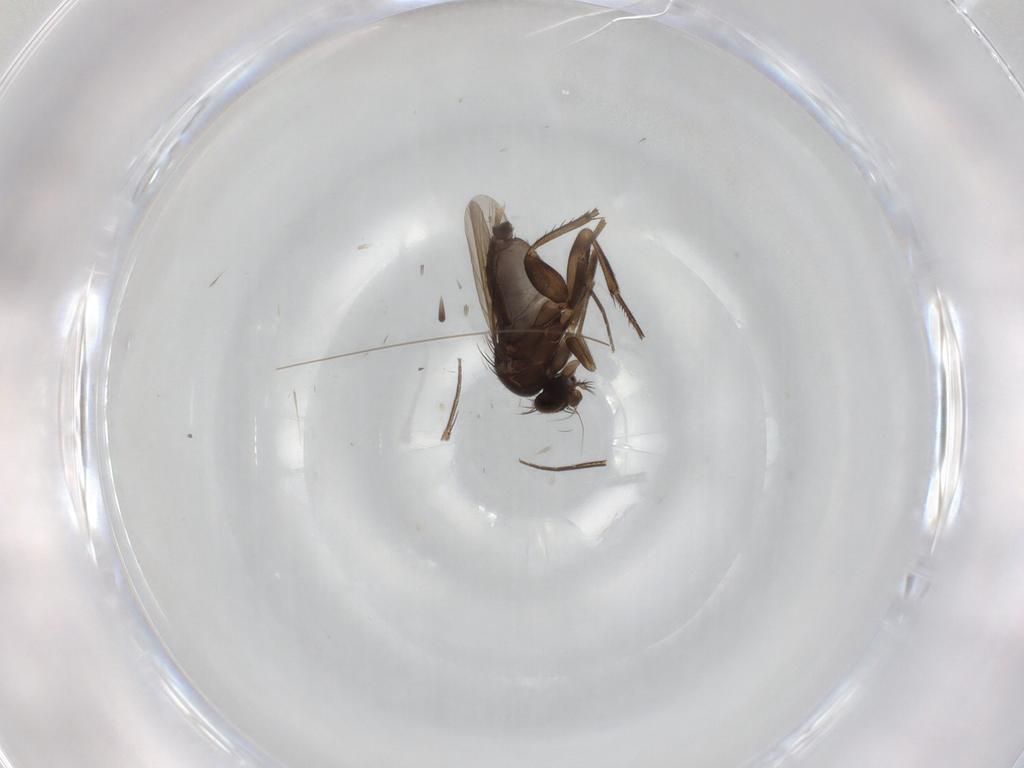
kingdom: Animalia
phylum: Arthropoda
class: Insecta
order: Diptera
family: Phoridae
